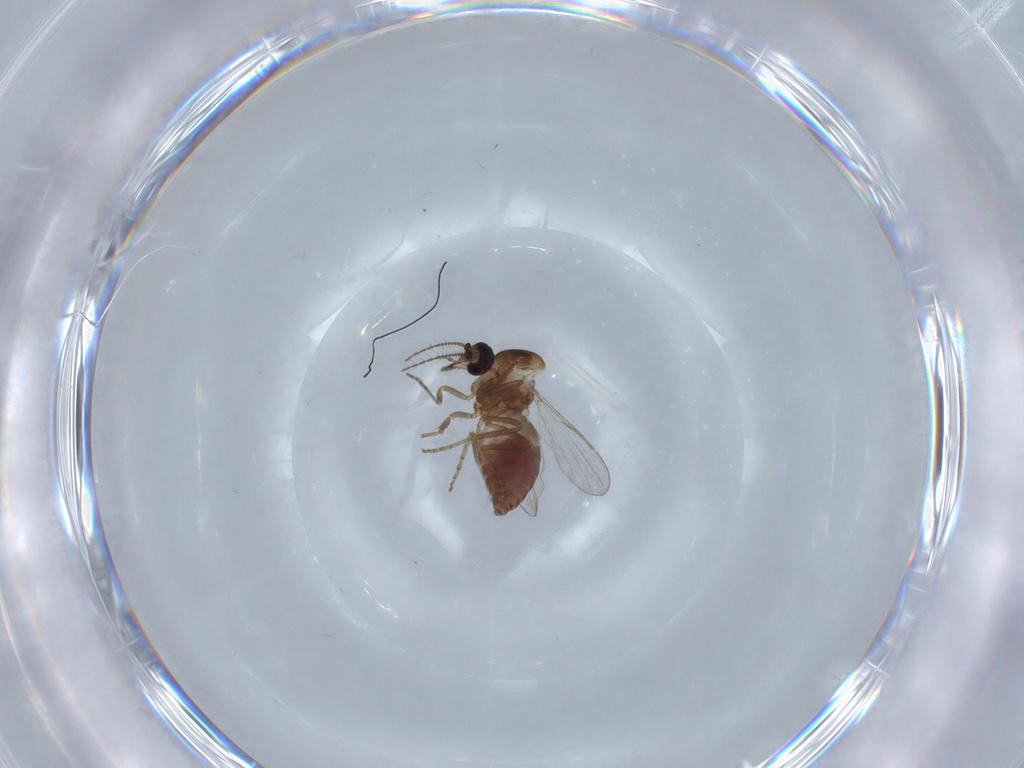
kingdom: Animalia
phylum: Arthropoda
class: Insecta
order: Diptera
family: Ceratopogonidae
